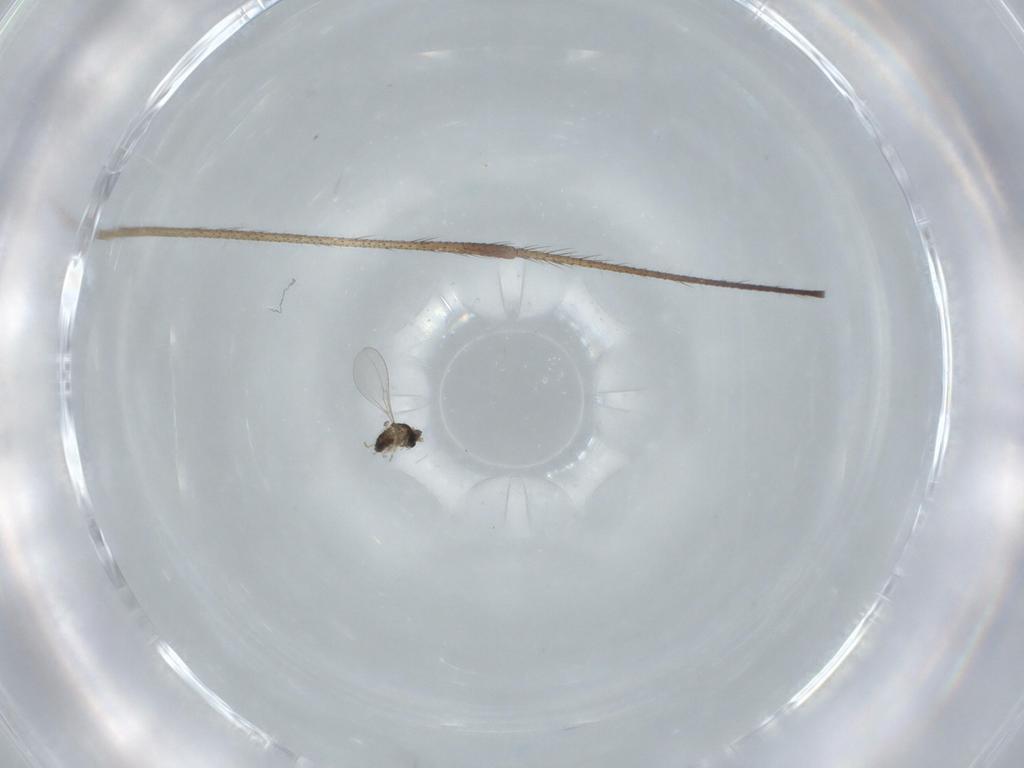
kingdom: Animalia
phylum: Arthropoda
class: Insecta
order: Diptera
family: Cecidomyiidae
